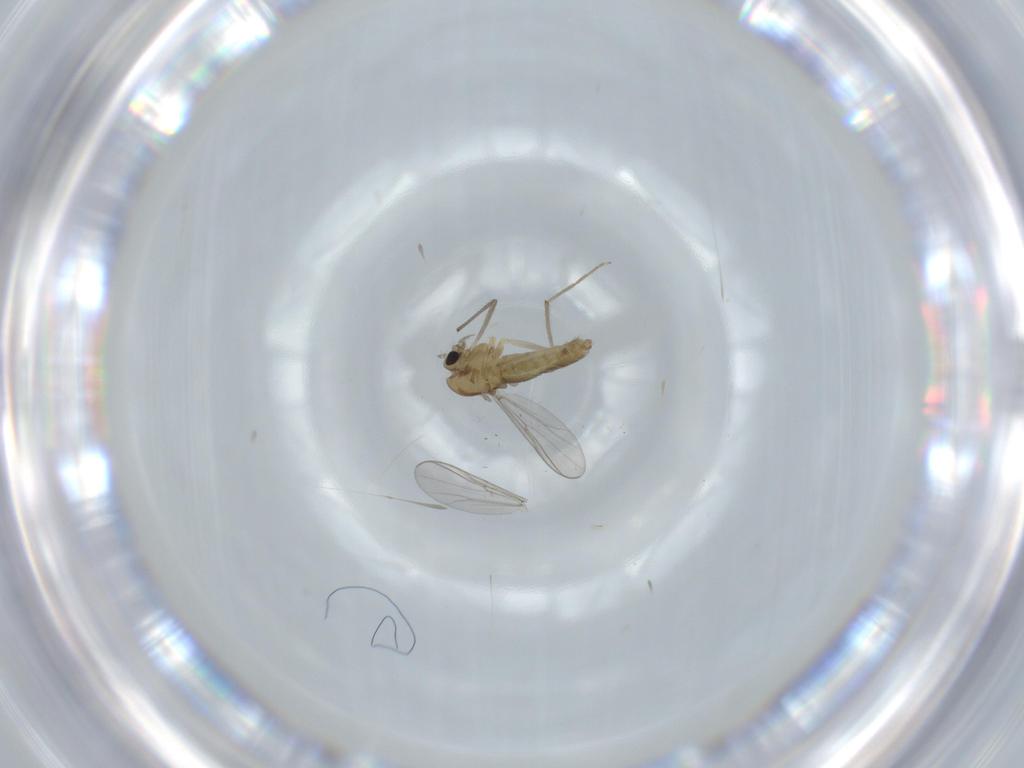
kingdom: Animalia
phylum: Arthropoda
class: Insecta
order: Diptera
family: Chironomidae
